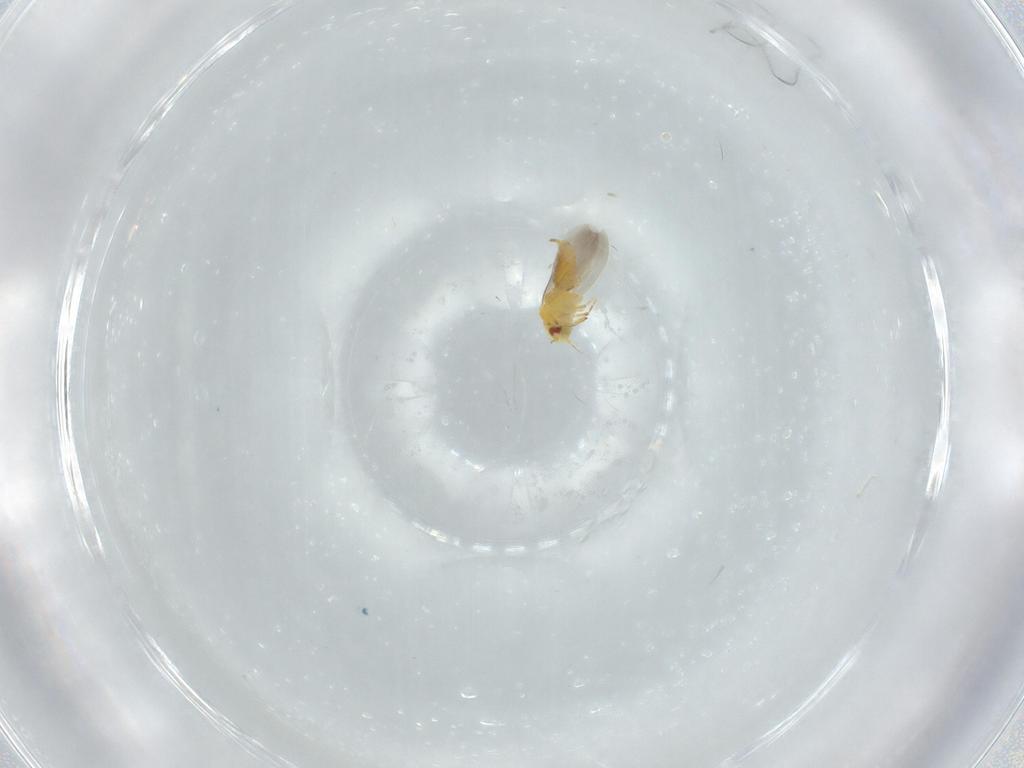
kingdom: Animalia
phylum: Arthropoda
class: Insecta
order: Hemiptera
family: Aleyrodidae
